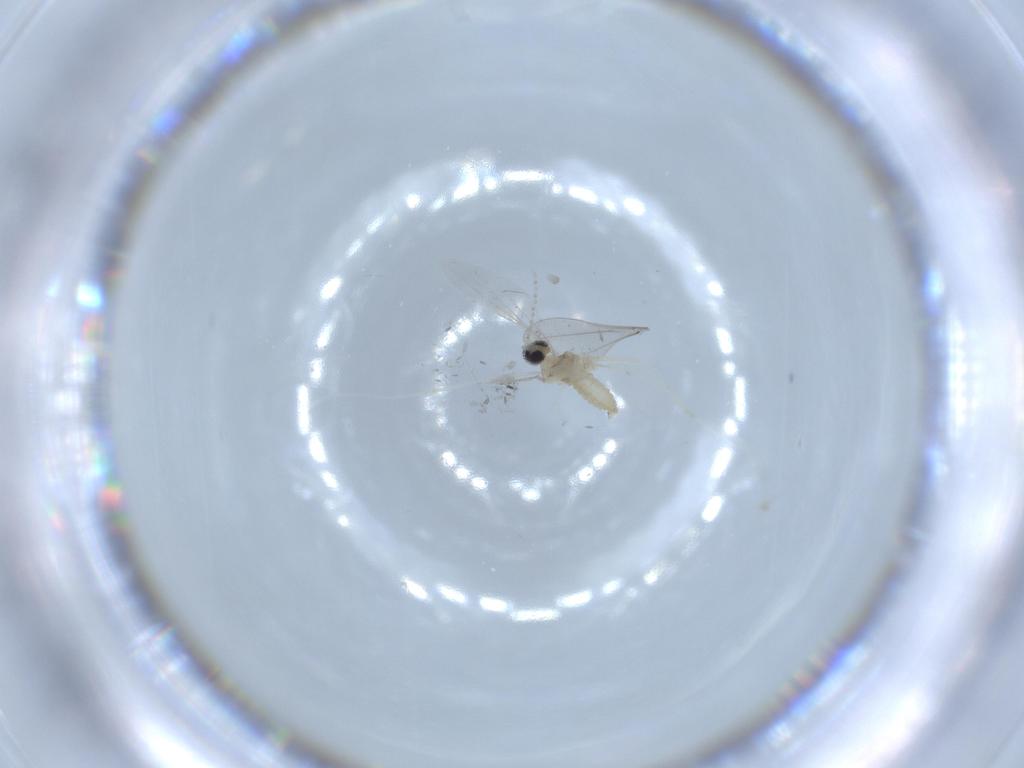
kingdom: Animalia
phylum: Arthropoda
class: Insecta
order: Diptera
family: Cecidomyiidae
